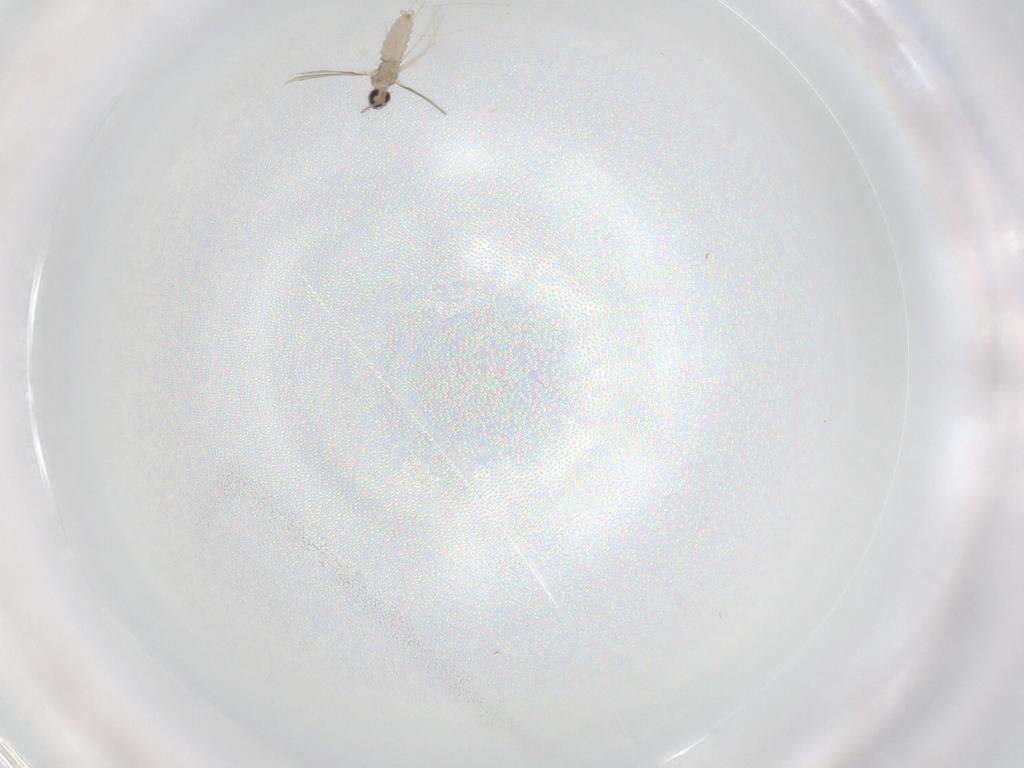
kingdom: Animalia
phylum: Arthropoda
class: Insecta
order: Diptera
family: Cecidomyiidae
